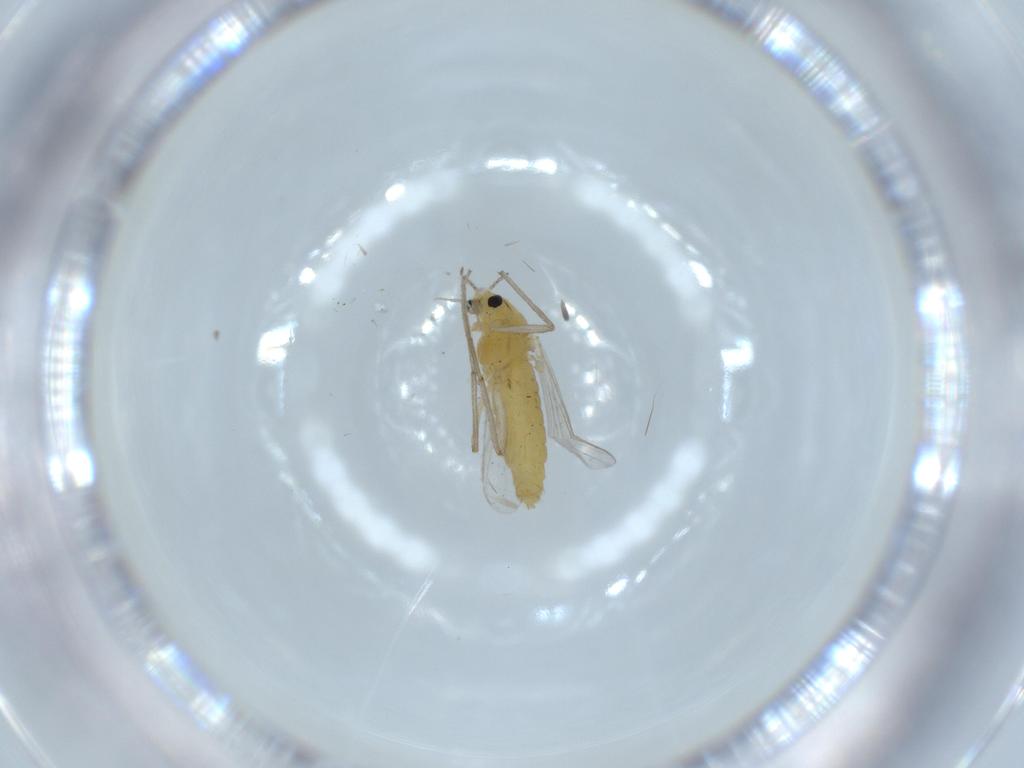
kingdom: Animalia
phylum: Arthropoda
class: Insecta
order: Diptera
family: Chironomidae
